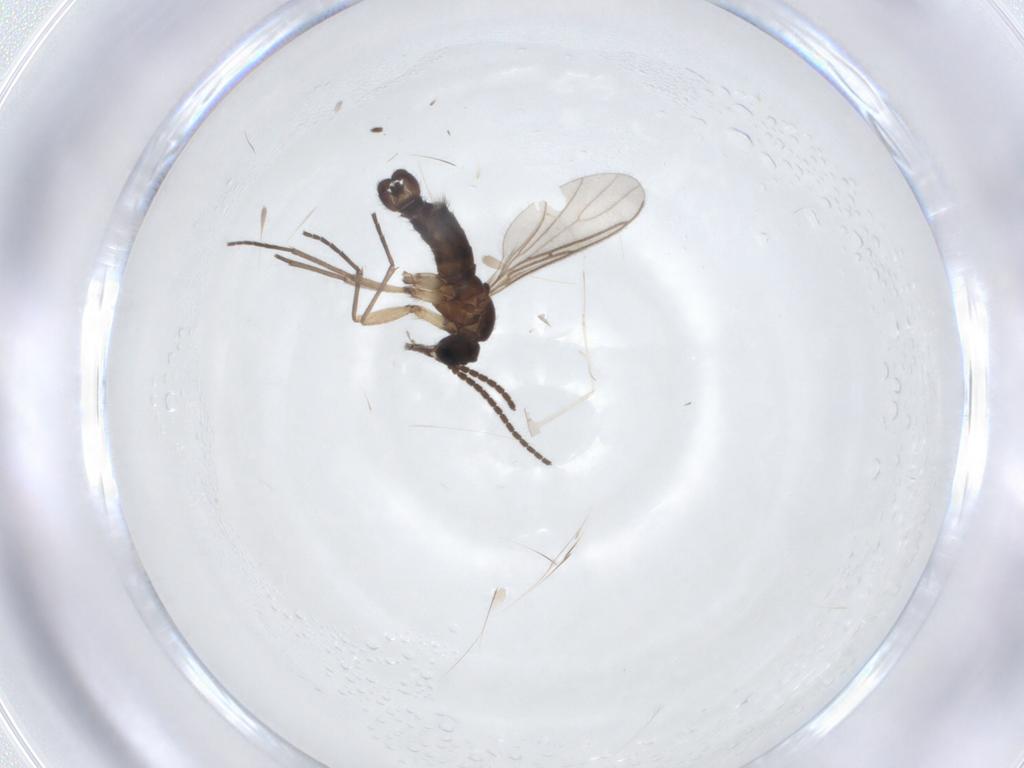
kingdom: Animalia
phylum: Arthropoda
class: Insecta
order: Diptera
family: Sciaridae
